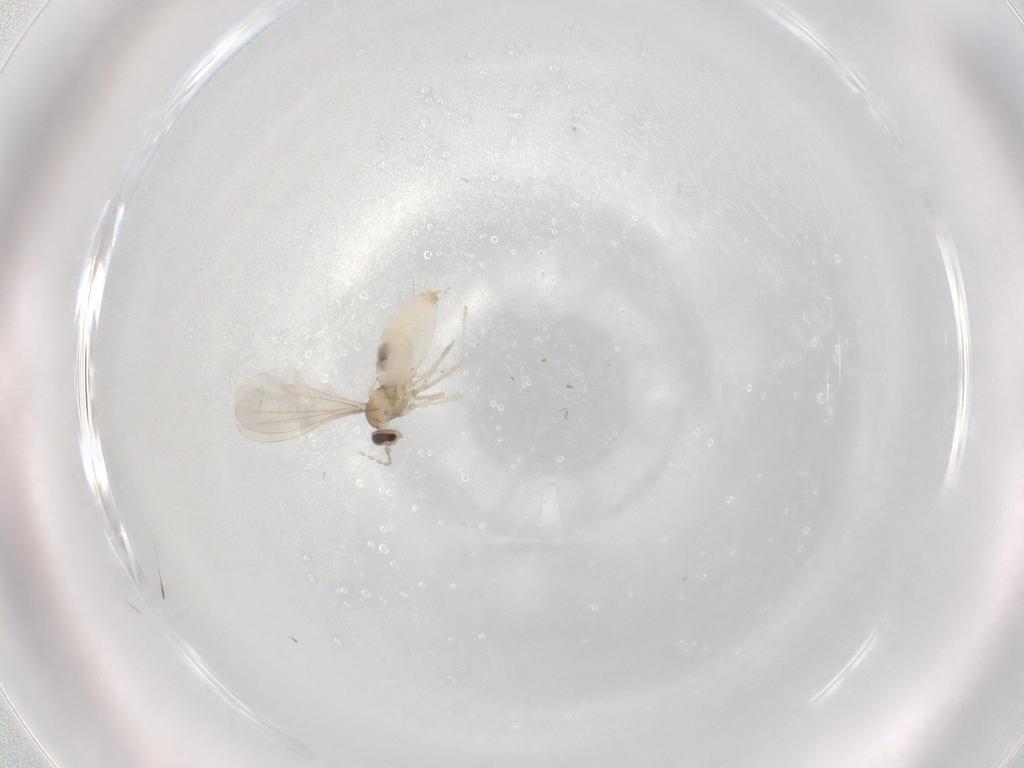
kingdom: Animalia
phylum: Arthropoda
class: Insecta
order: Diptera
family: Cecidomyiidae
